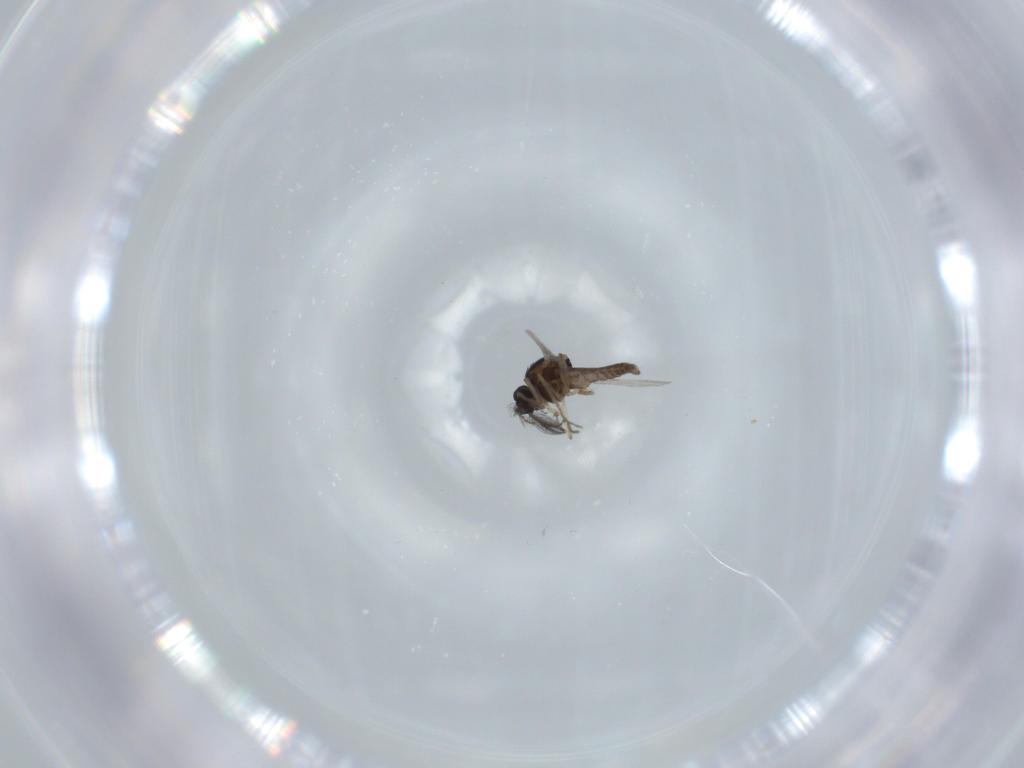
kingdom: Animalia
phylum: Arthropoda
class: Insecta
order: Diptera
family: Ceratopogonidae
